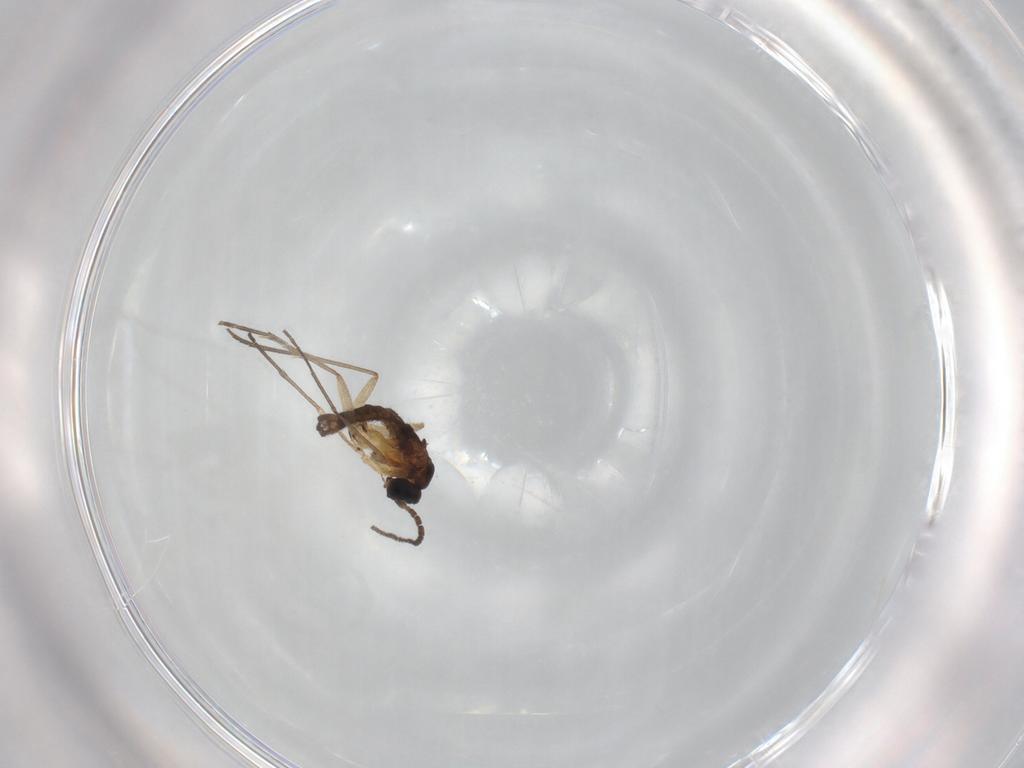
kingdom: Animalia
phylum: Arthropoda
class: Insecta
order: Diptera
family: Sciaridae
